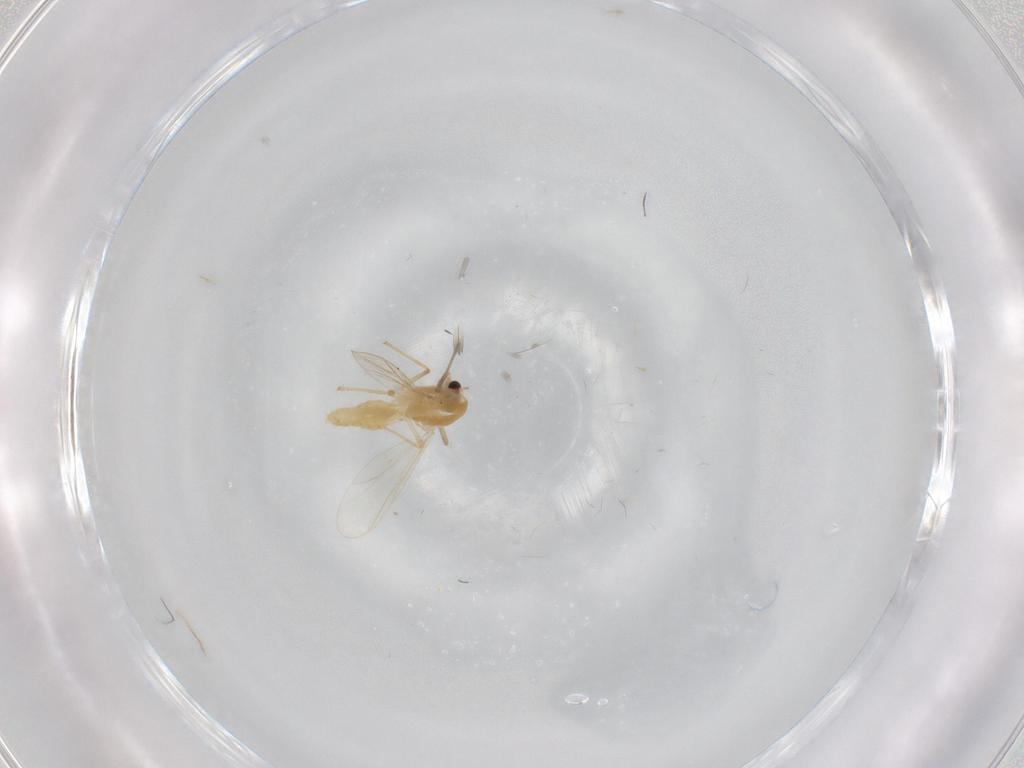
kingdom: Animalia
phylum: Arthropoda
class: Insecta
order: Diptera
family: Chironomidae
